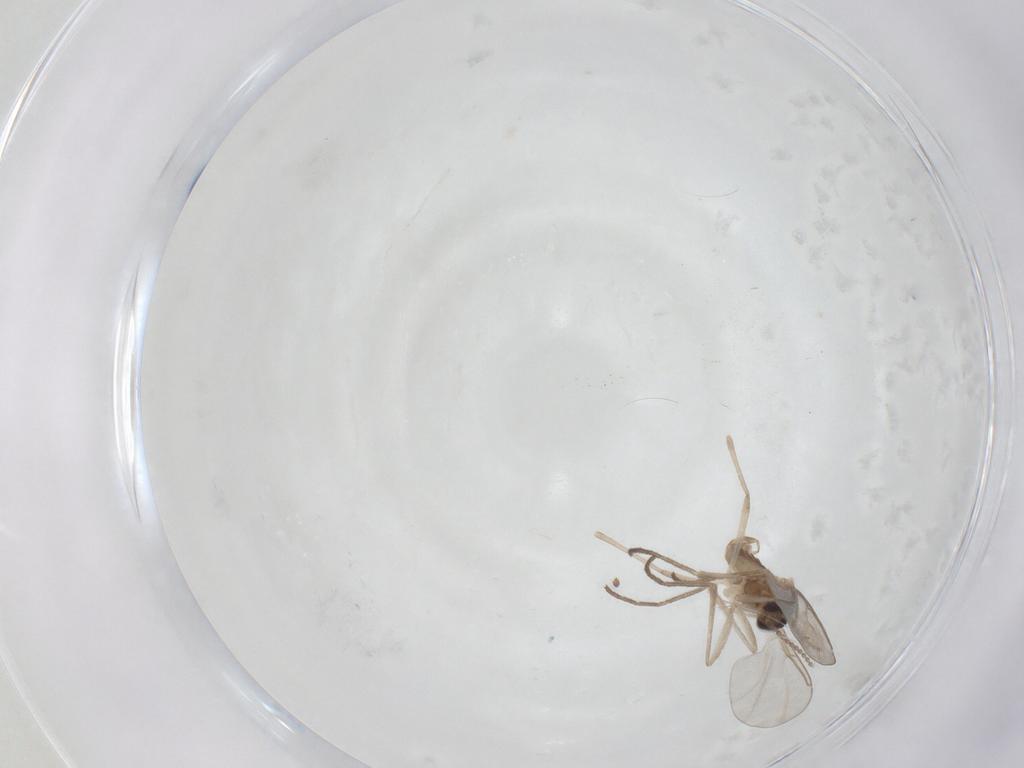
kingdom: Animalia
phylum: Arthropoda
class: Insecta
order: Diptera
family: Cecidomyiidae
